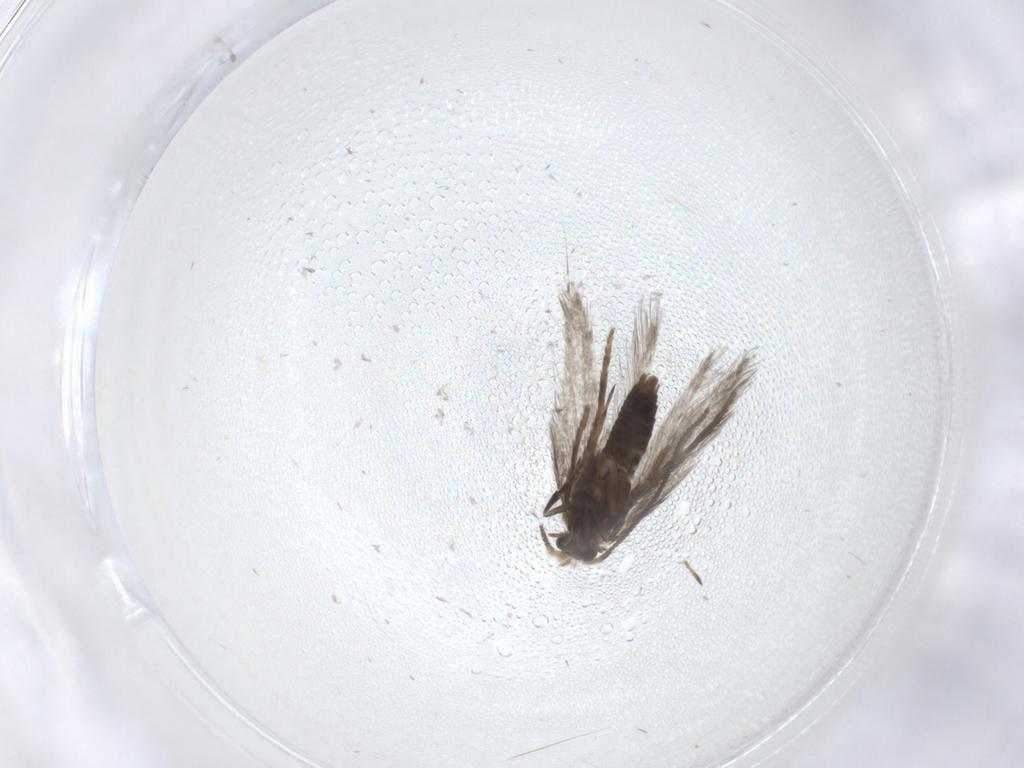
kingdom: Animalia
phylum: Arthropoda
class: Insecta
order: Lepidoptera
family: Nepticulidae
